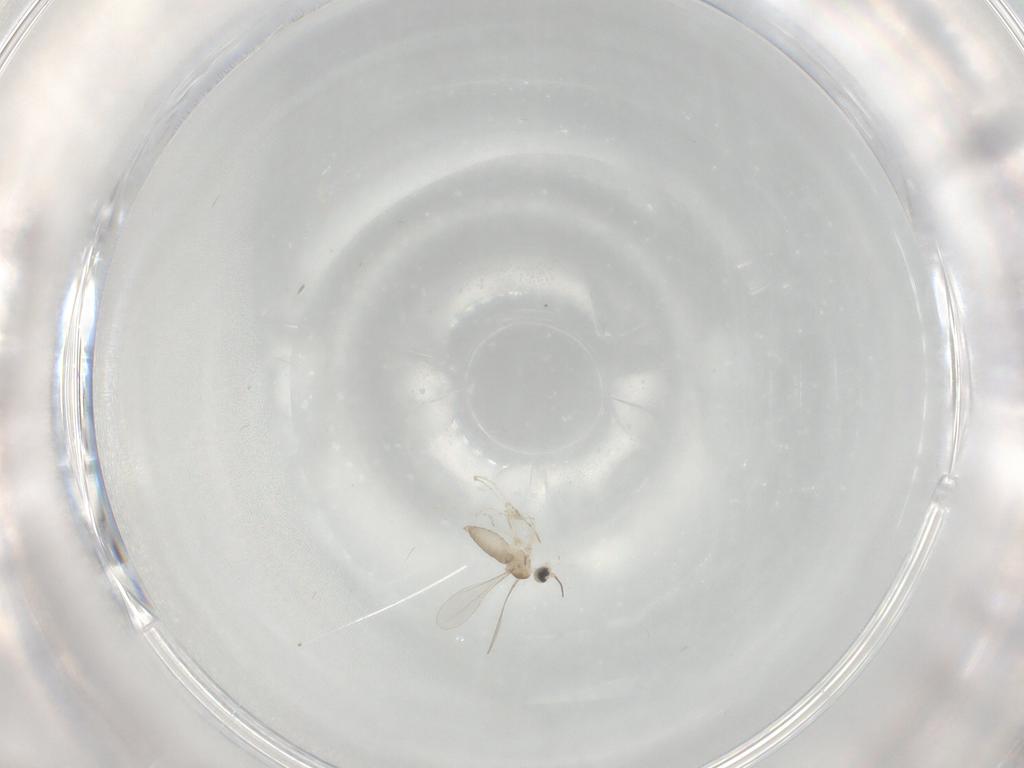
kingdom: Animalia
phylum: Arthropoda
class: Insecta
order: Diptera
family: Ceratopogonidae
